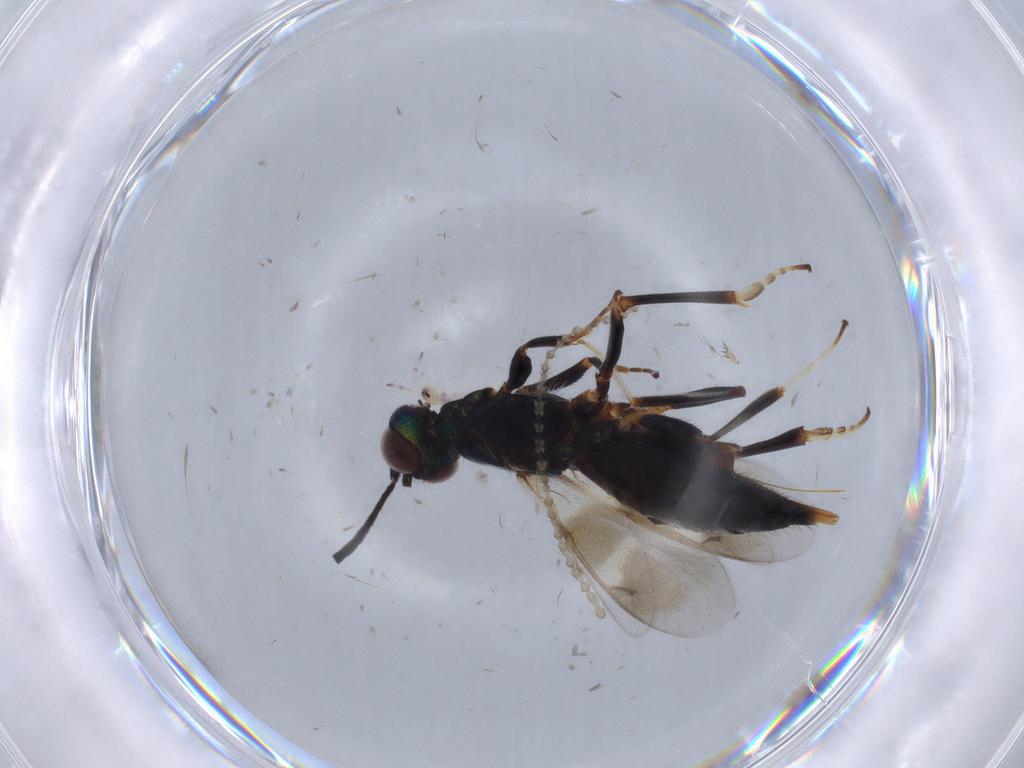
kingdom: Animalia
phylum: Arthropoda
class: Insecta
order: Hymenoptera
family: Eupelmidae
